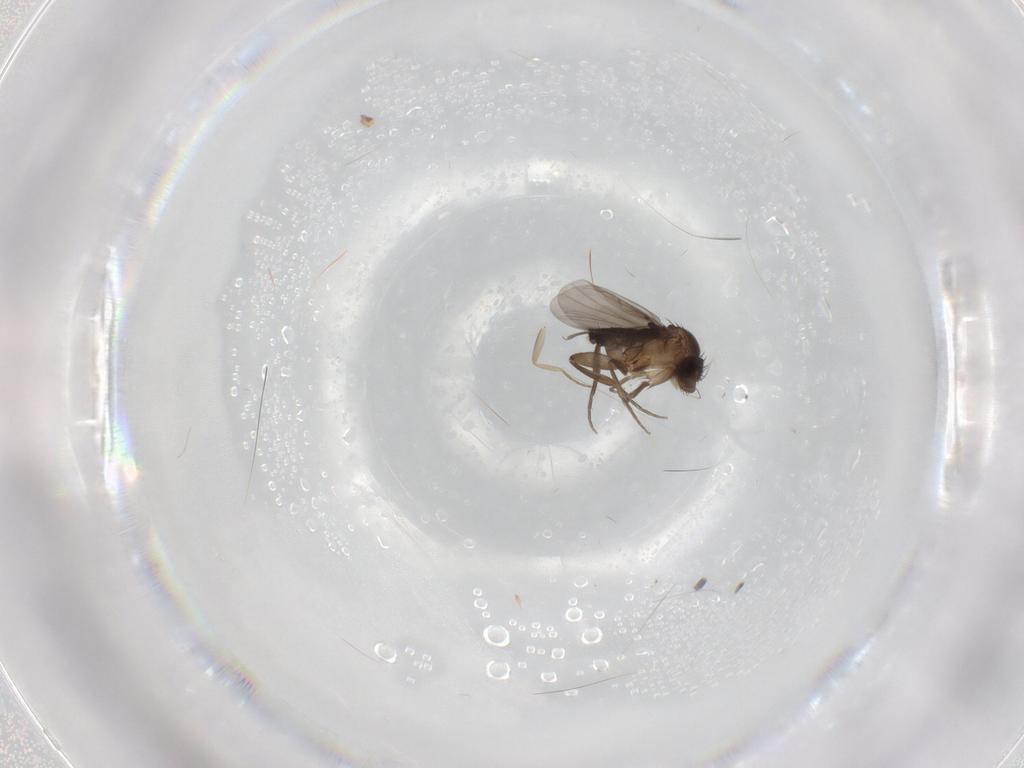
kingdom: Animalia
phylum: Arthropoda
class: Insecta
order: Diptera
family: Phoridae
